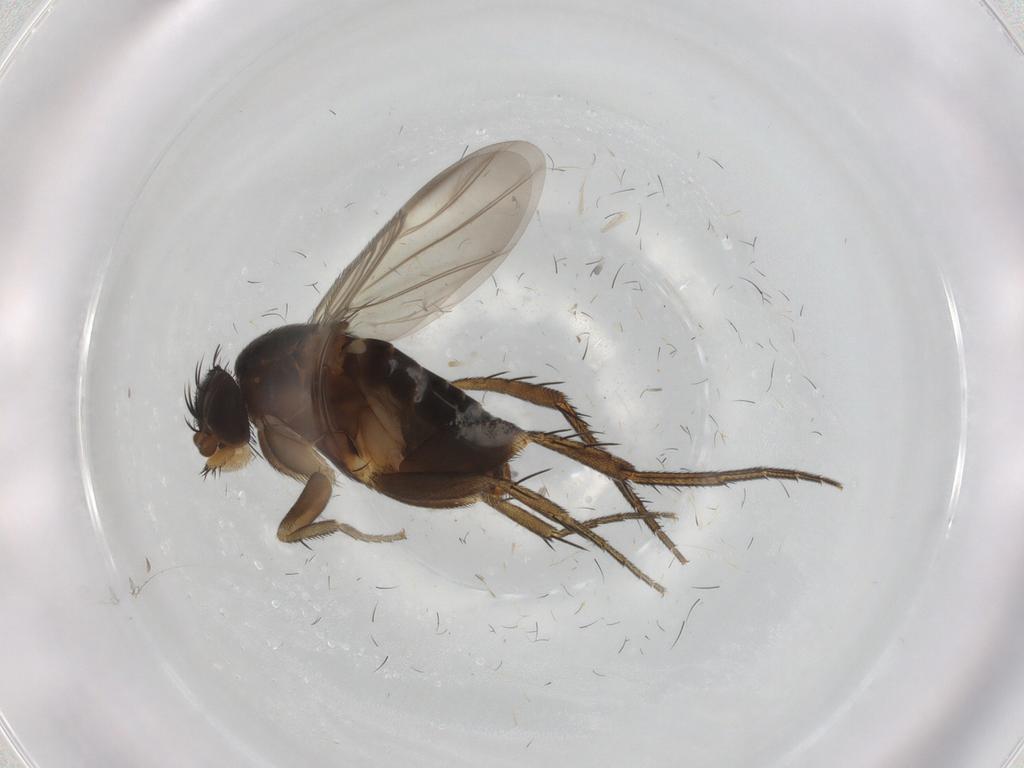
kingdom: Animalia
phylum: Arthropoda
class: Insecta
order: Diptera
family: Phoridae
